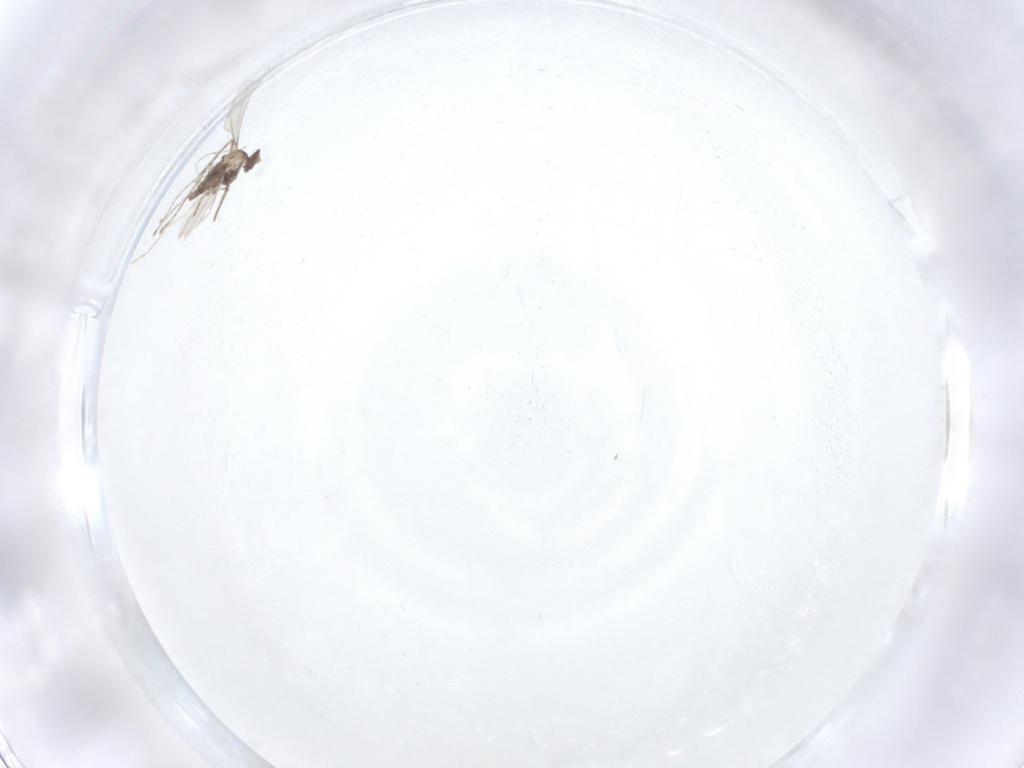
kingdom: Animalia
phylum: Arthropoda
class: Insecta
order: Diptera
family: Cecidomyiidae
